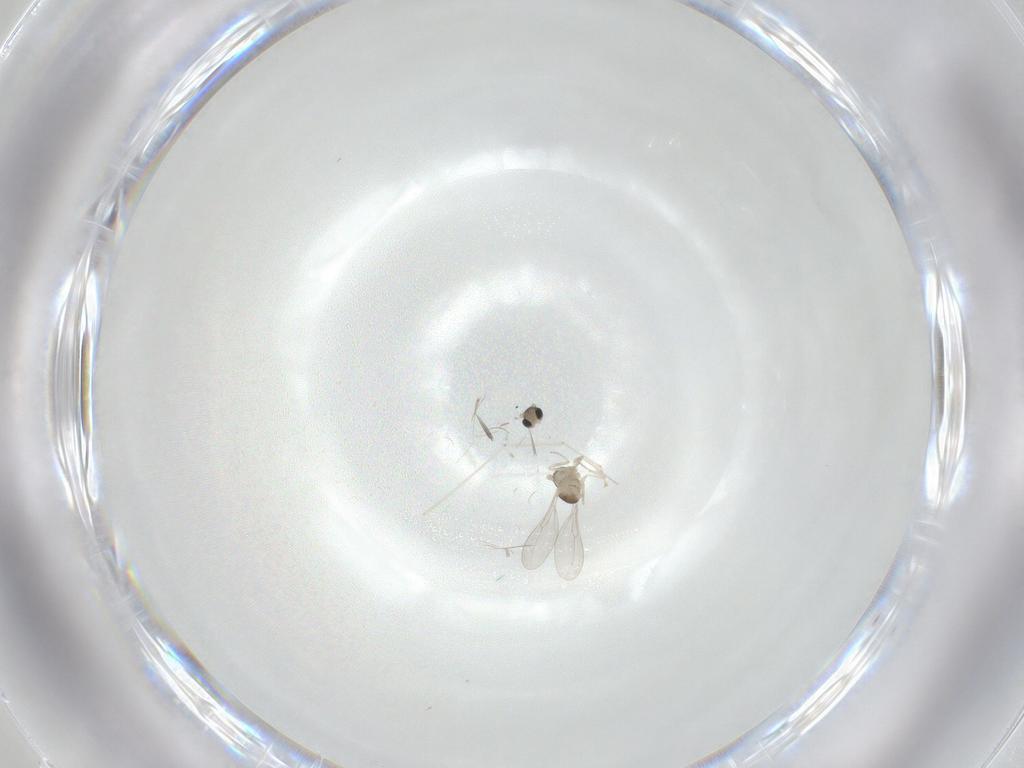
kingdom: Animalia
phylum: Arthropoda
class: Insecta
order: Diptera
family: Cecidomyiidae
